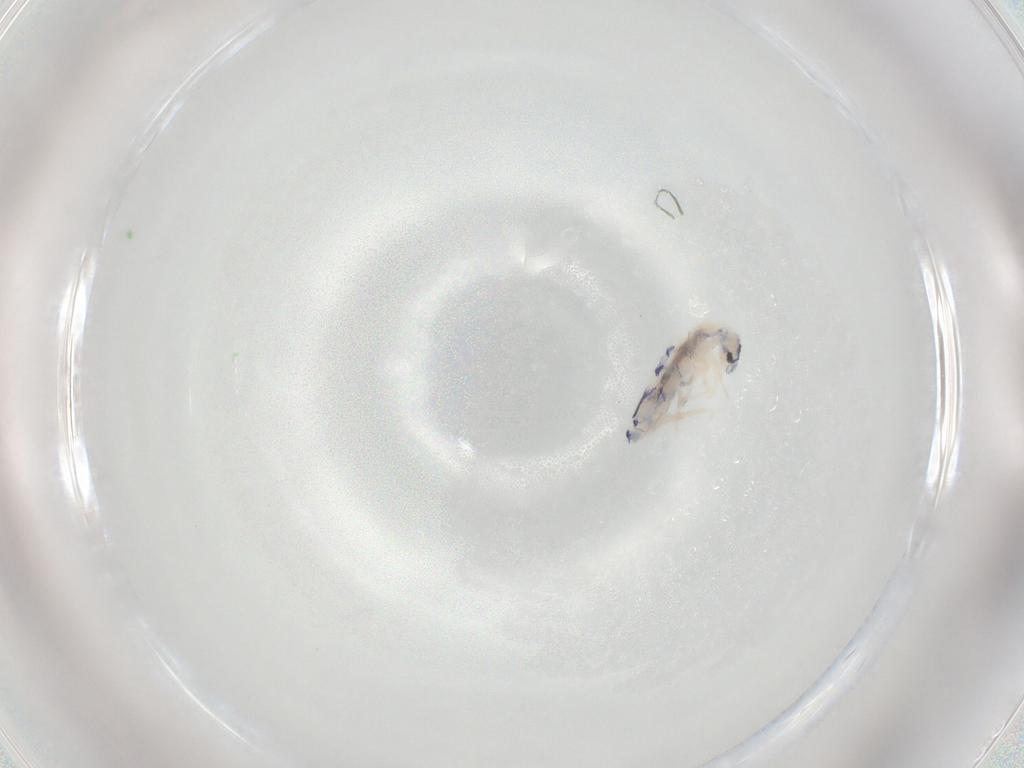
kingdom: Animalia
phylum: Arthropoda
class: Collembola
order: Entomobryomorpha
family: Entomobryidae
